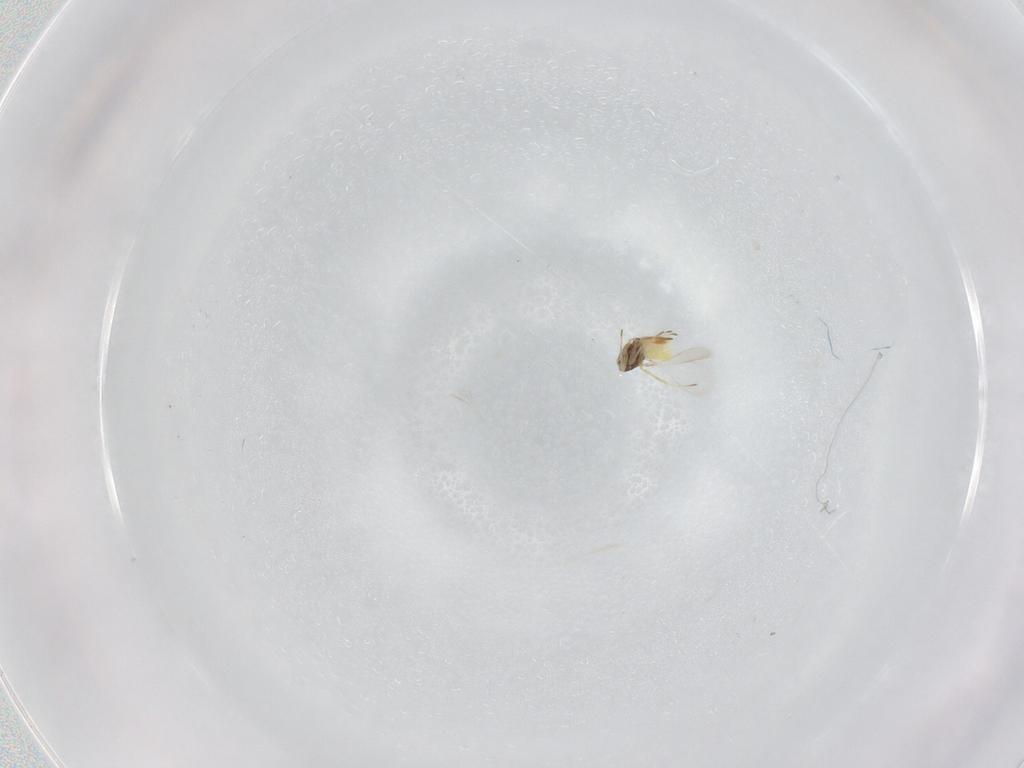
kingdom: Animalia
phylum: Arthropoda
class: Insecta
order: Hymenoptera
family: Mymaridae
